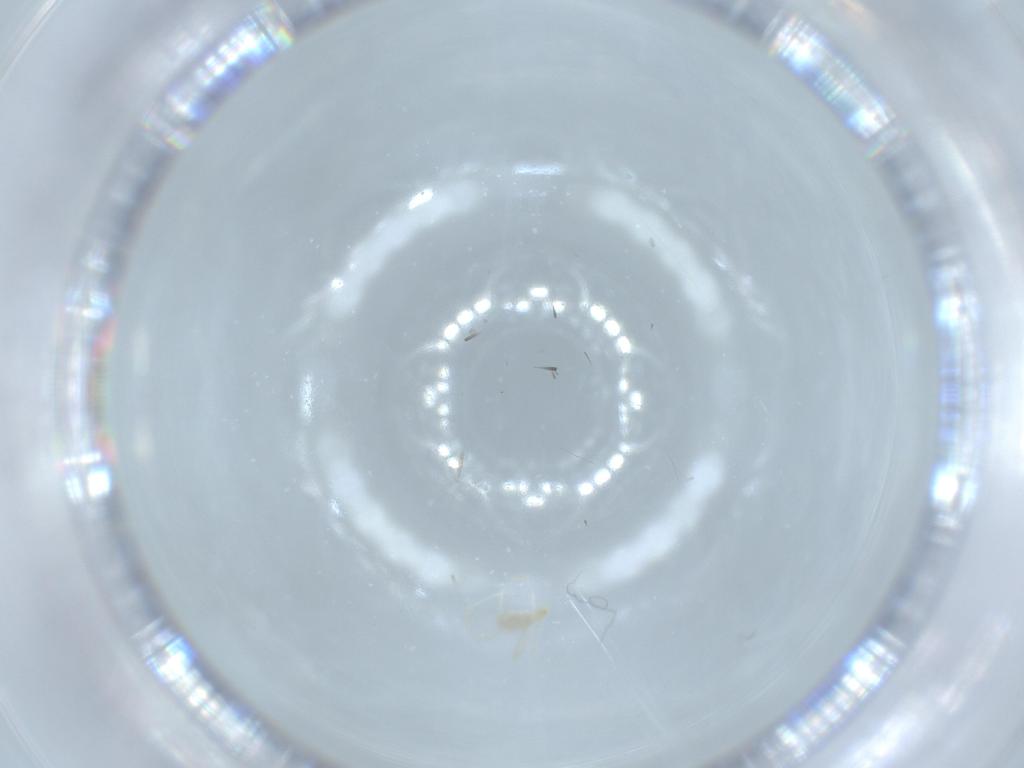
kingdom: Animalia
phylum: Arthropoda
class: Arachnida
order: Trombidiformes
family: Erythraeidae
